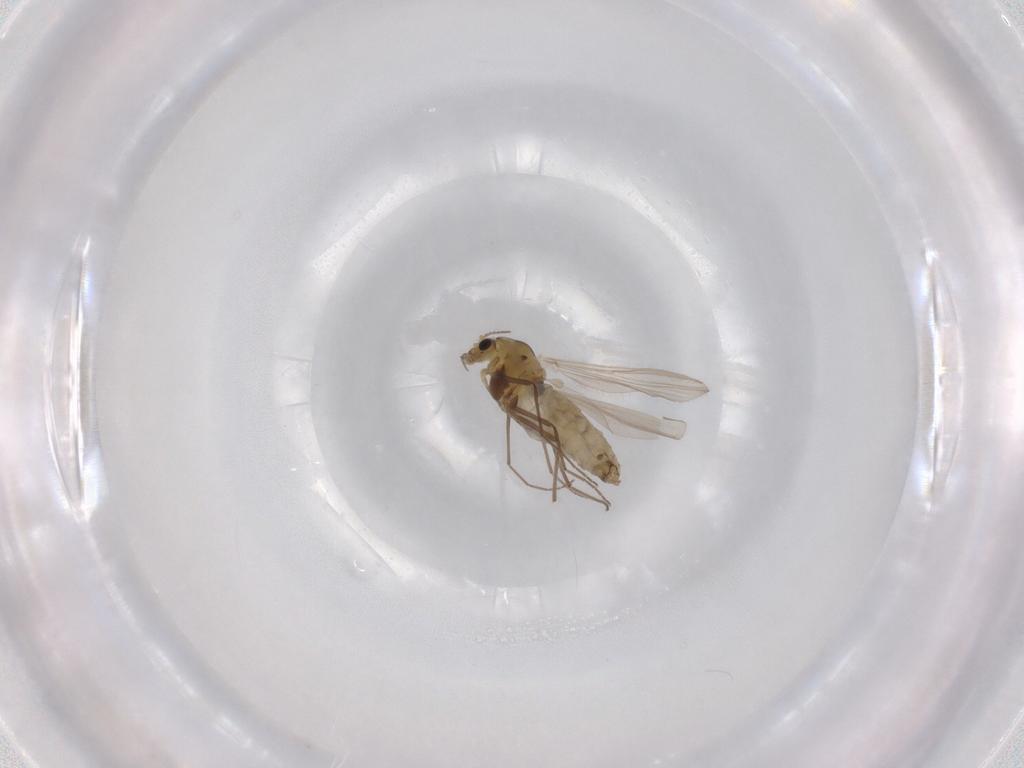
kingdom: Animalia
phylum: Arthropoda
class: Insecta
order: Diptera
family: Chironomidae
